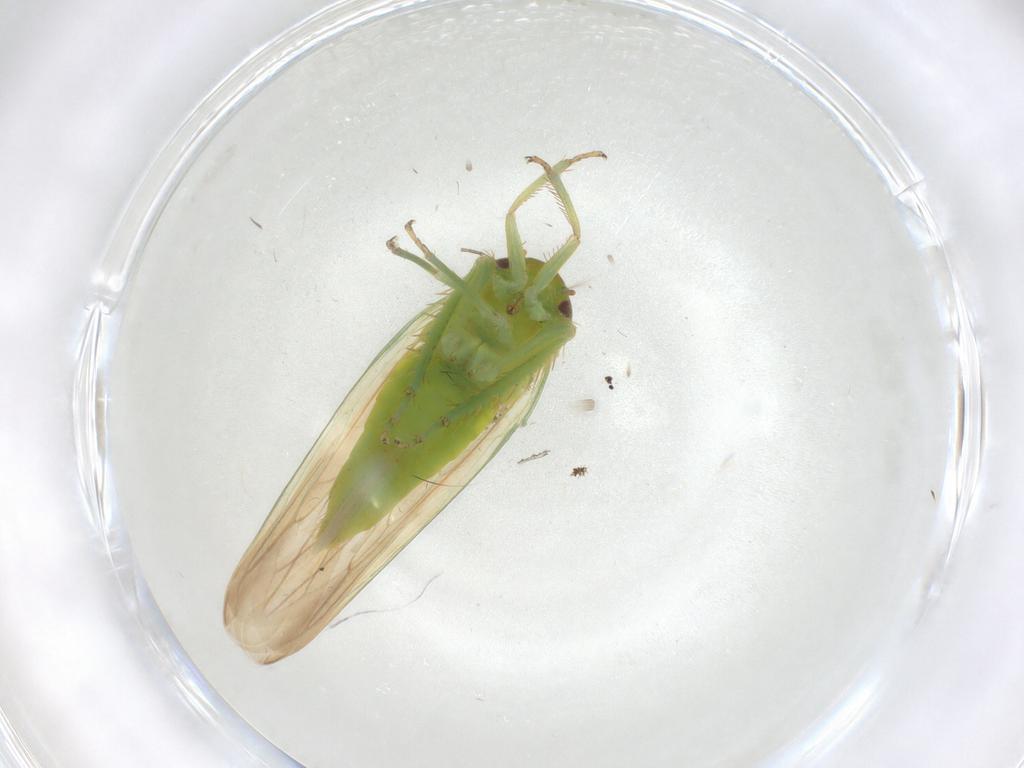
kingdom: Animalia
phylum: Arthropoda
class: Insecta
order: Hemiptera
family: Cicadellidae
